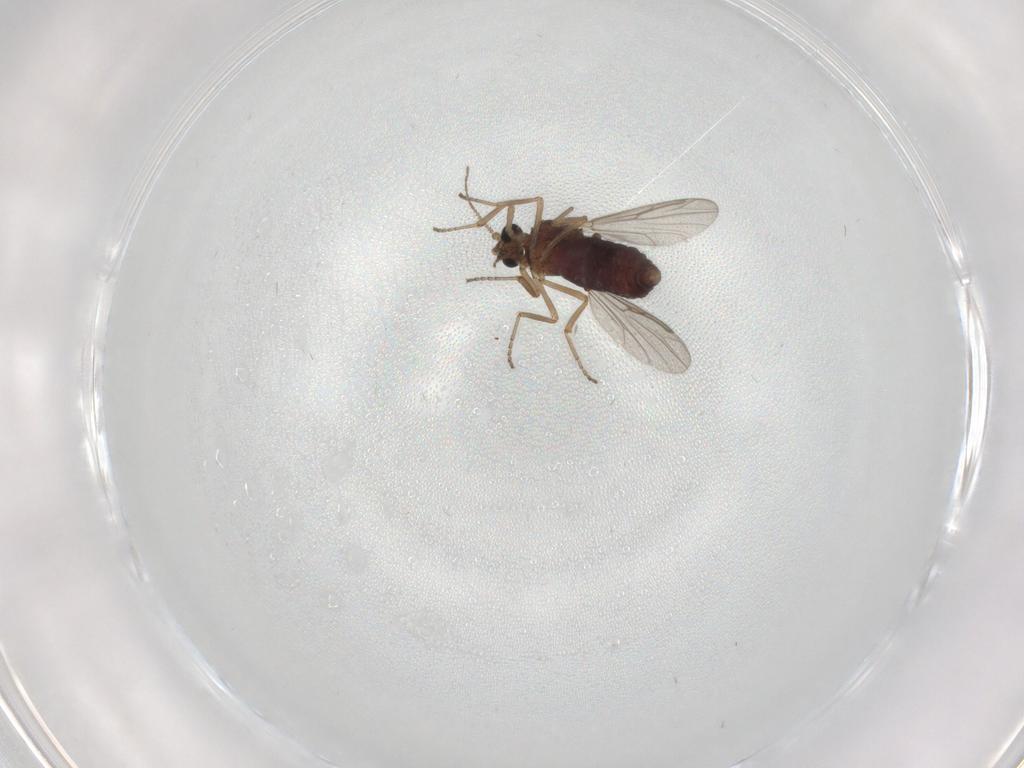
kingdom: Animalia
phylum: Arthropoda
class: Insecta
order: Diptera
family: Ceratopogonidae
